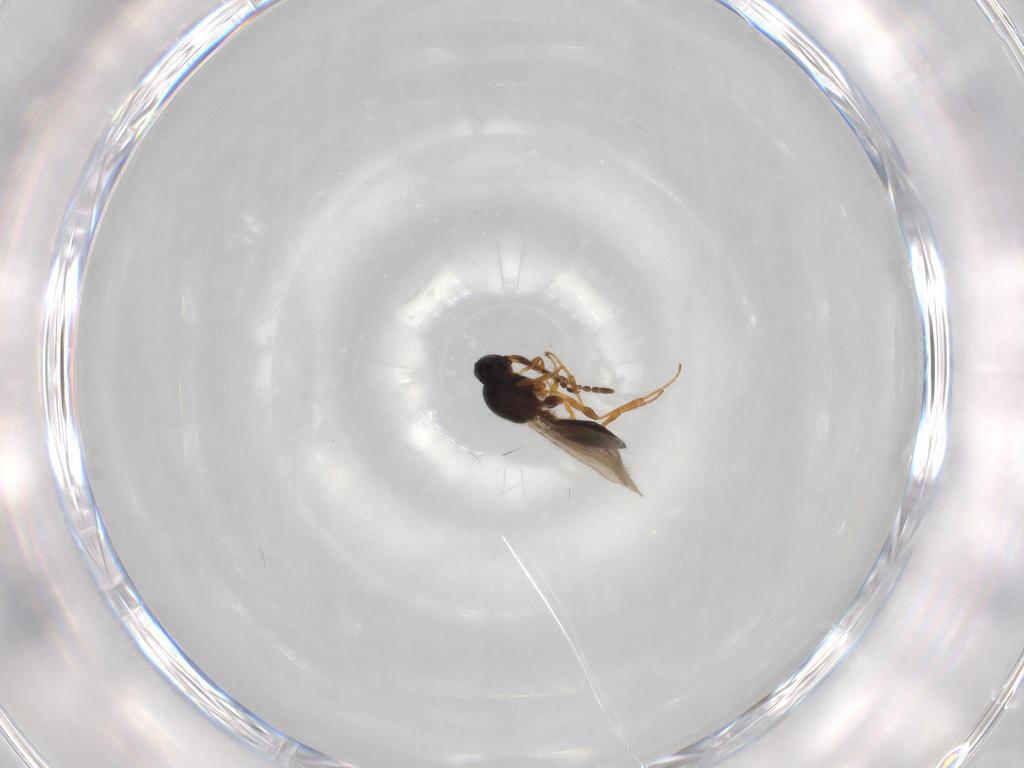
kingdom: Animalia
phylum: Arthropoda
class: Insecta
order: Hymenoptera
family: Platygastridae
